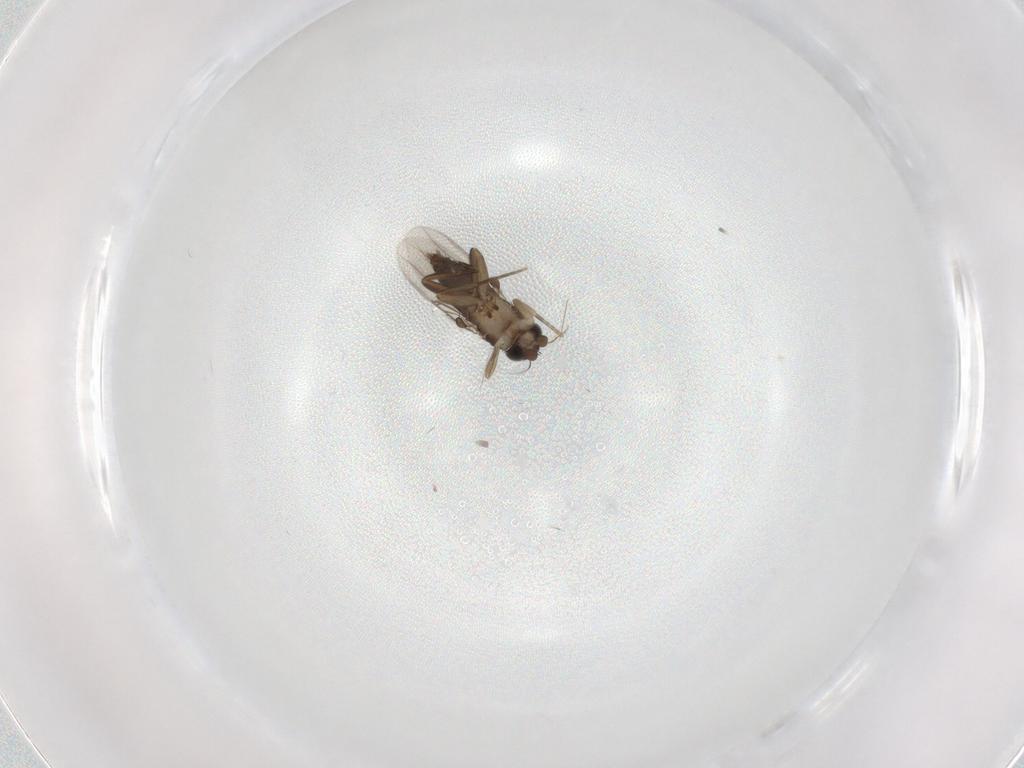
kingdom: Animalia
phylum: Arthropoda
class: Insecta
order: Diptera
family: Phoridae
